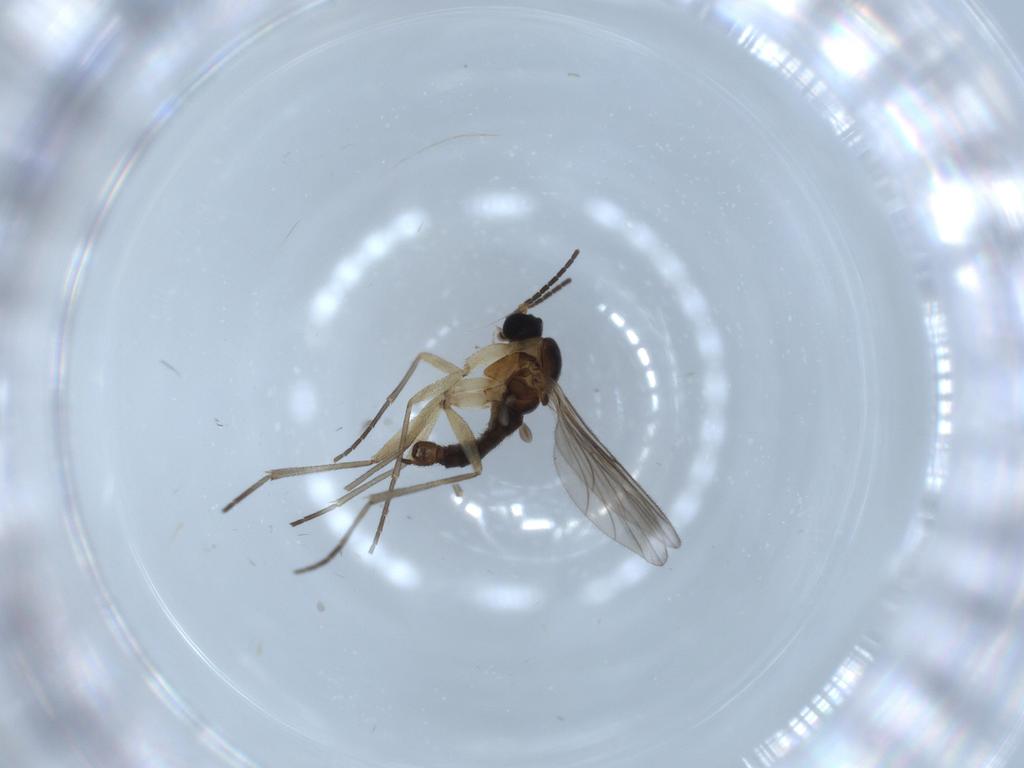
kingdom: Animalia
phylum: Arthropoda
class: Insecta
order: Diptera
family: Sciaridae
